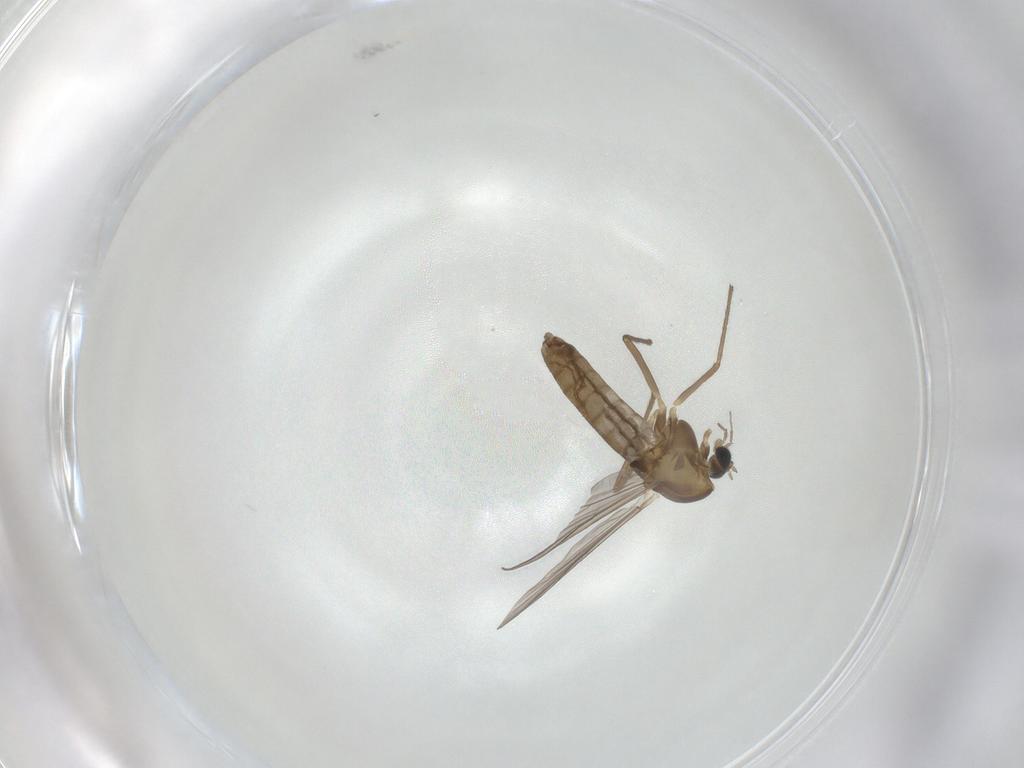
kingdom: Animalia
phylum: Arthropoda
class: Insecta
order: Diptera
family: Chironomidae
